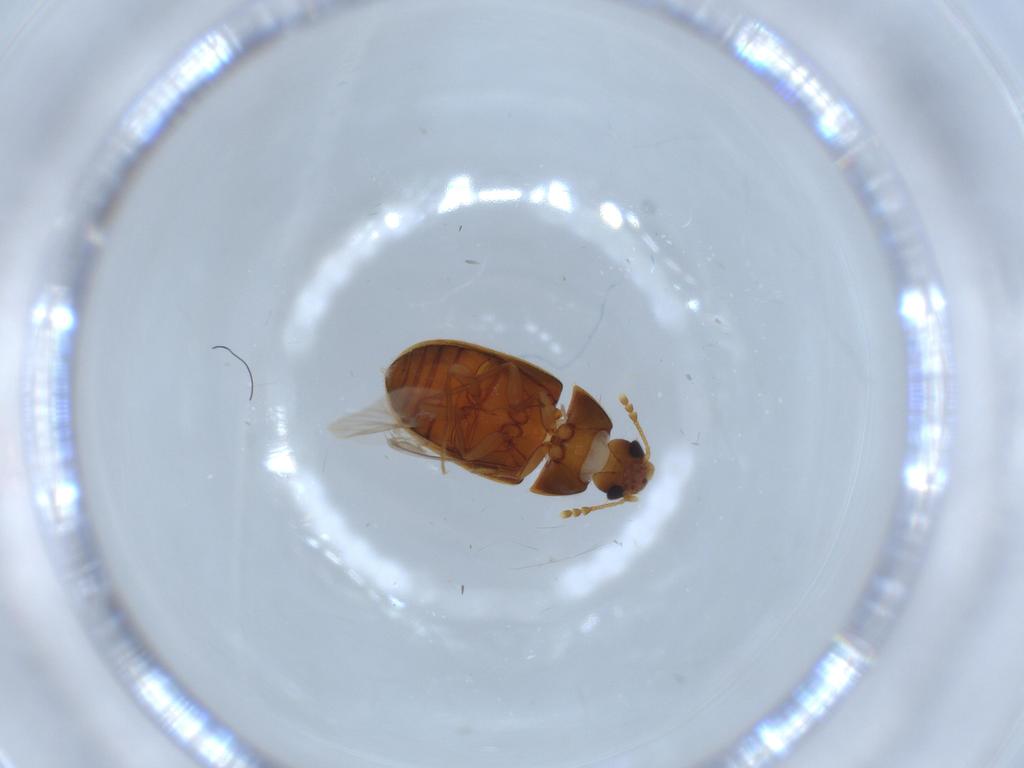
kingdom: Animalia
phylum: Arthropoda
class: Insecta
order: Coleoptera
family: Mycetophagidae
